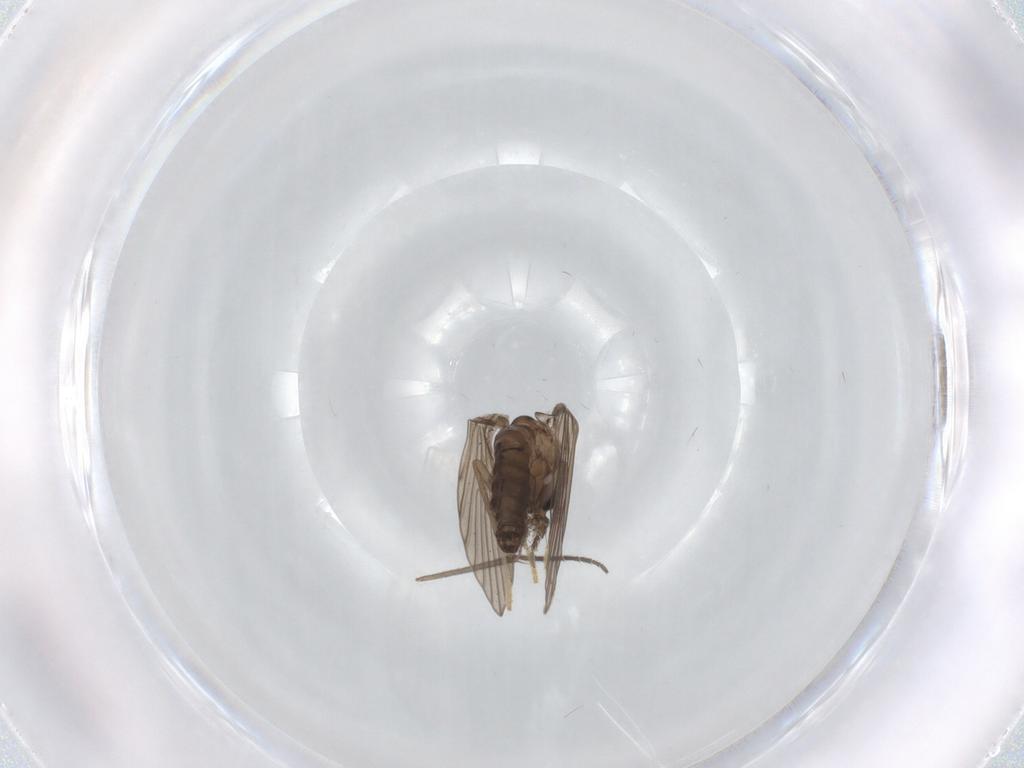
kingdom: Animalia
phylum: Arthropoda
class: Insecta
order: Diptera
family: Psychodidae
